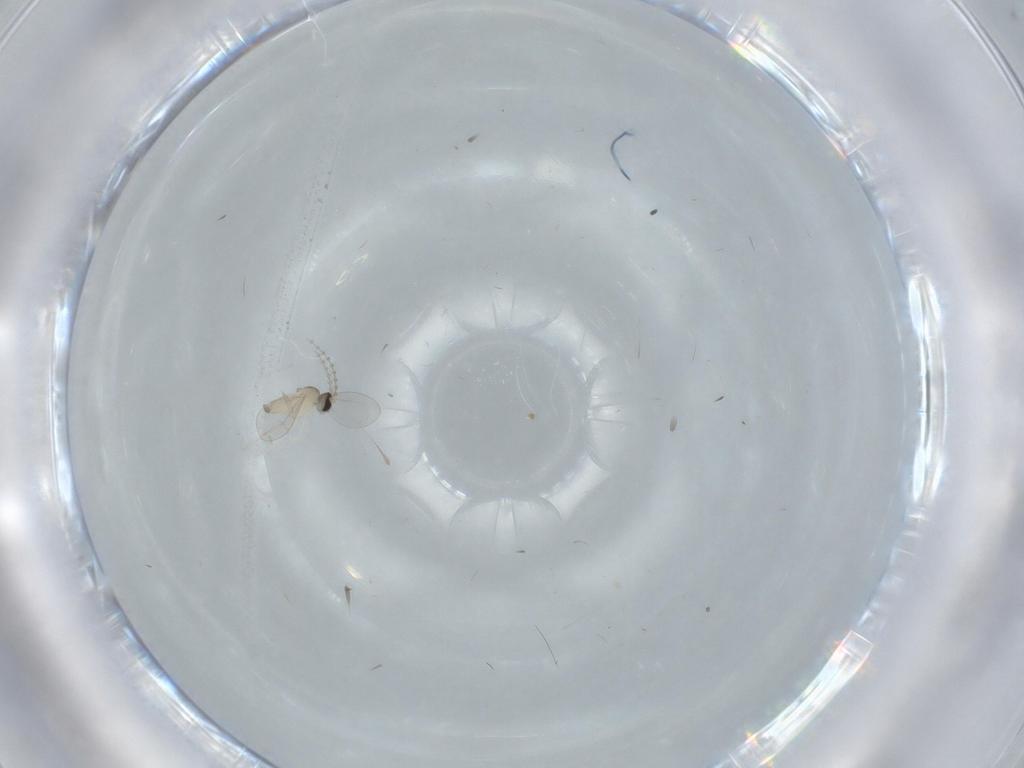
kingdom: Animalia
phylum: Arthropoda
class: Insecta
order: Diptera
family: Cecidomyiidae
